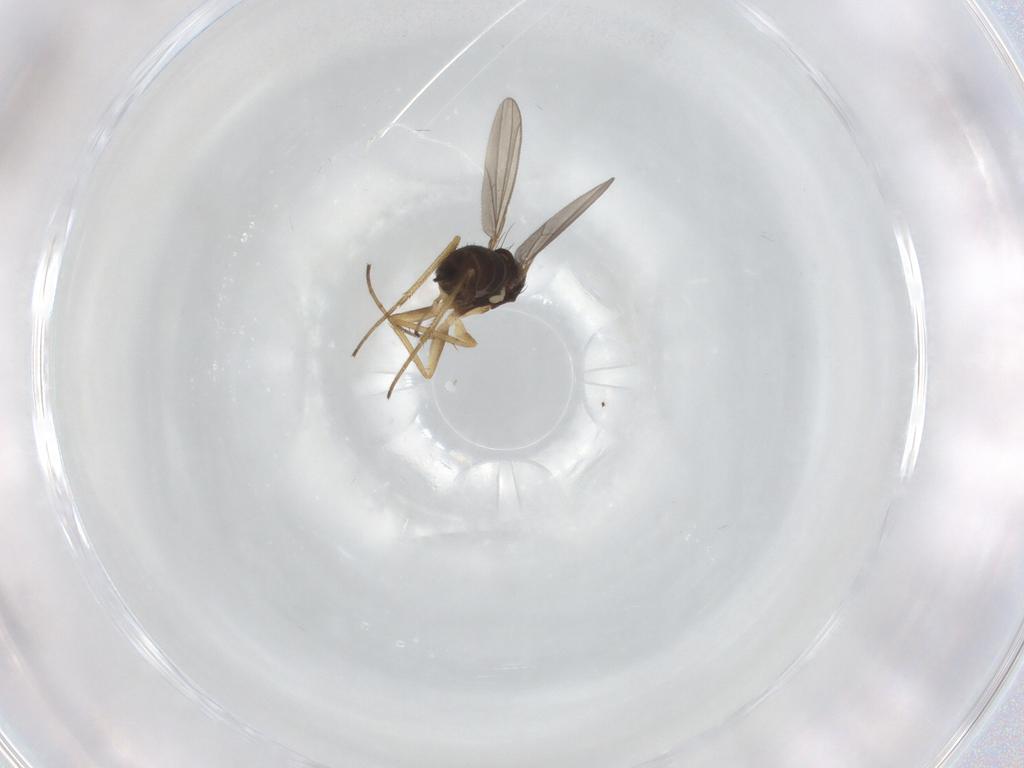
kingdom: Animalia
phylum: Arthropoda
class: Insecta
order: Diptera
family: Dolichopodidae
